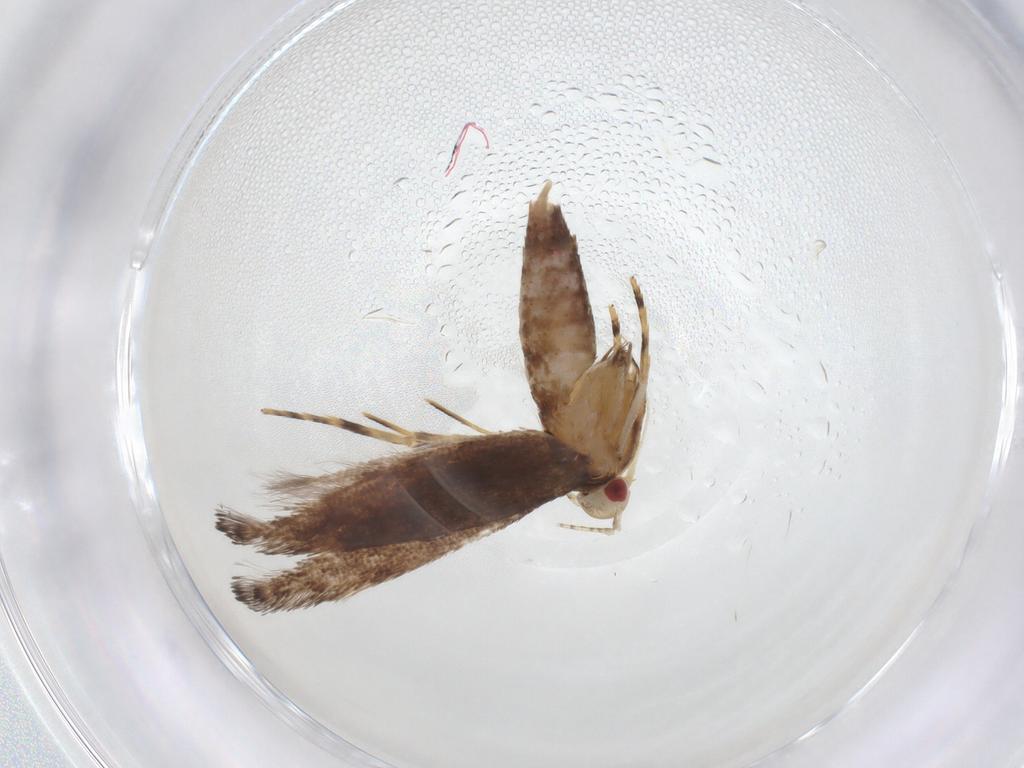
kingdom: Animalia
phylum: Arthropoda
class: Insecta
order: Lepidoptera
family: Cosmopterigidae
